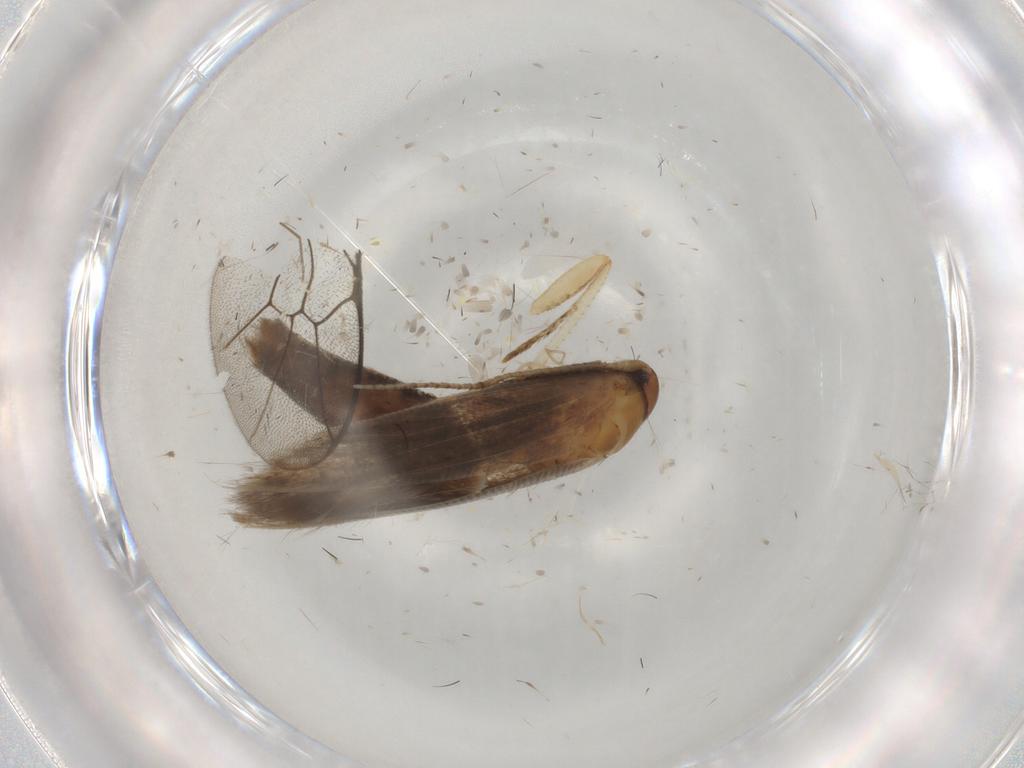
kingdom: Animalia
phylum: Arthropoda
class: Insecta
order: Lepidoptera
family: Cosmopterigidae
